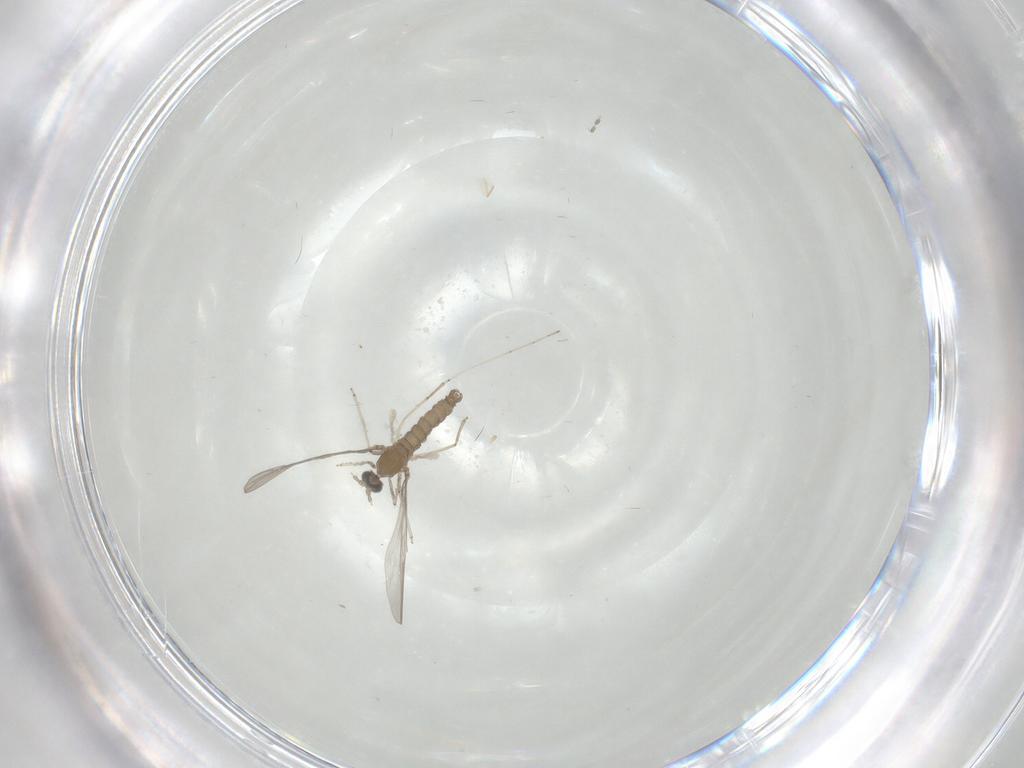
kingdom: Animalia
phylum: Arthropoda
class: Insecta
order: Diptera
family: Cecidomyiidae
